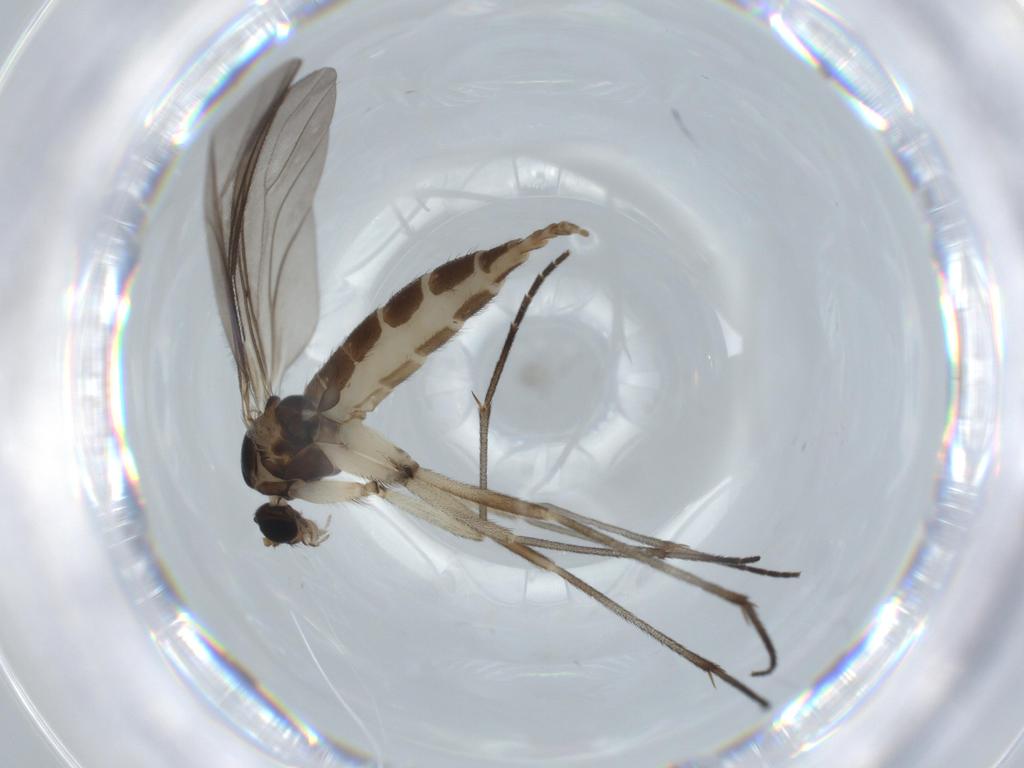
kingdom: Animalia
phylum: Arthropoda
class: Insecta
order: Diptera
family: Sciaridae
